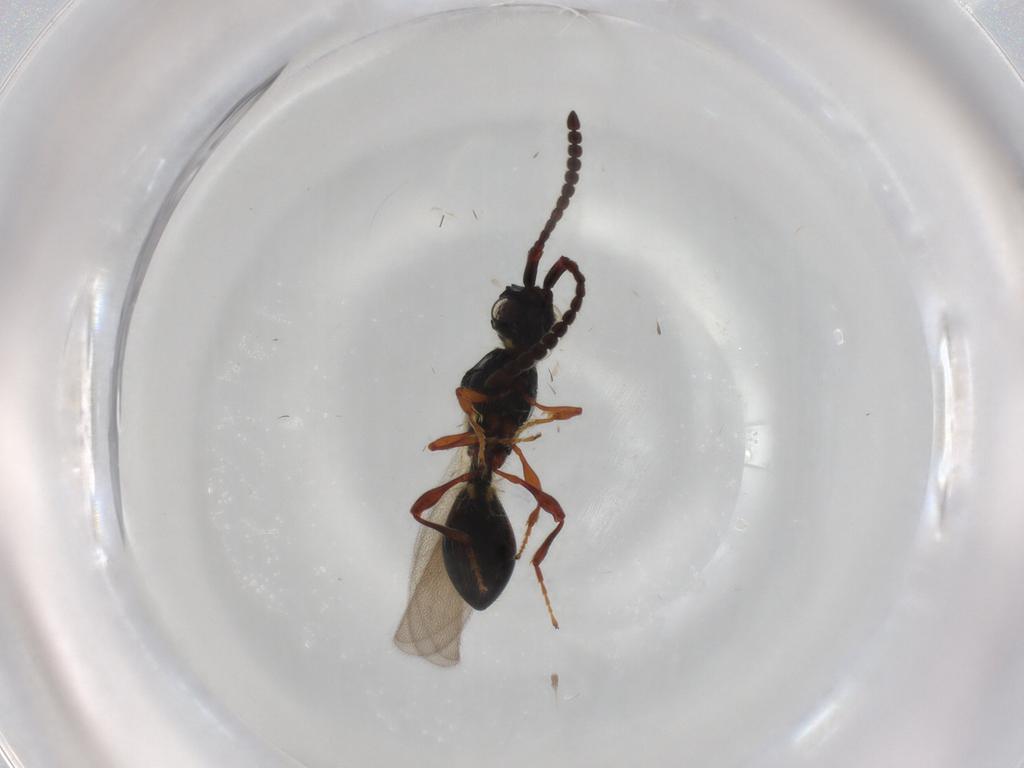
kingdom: Animalia
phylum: Arthropoda
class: Insecta
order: Hymenoptera
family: Diapriidae
